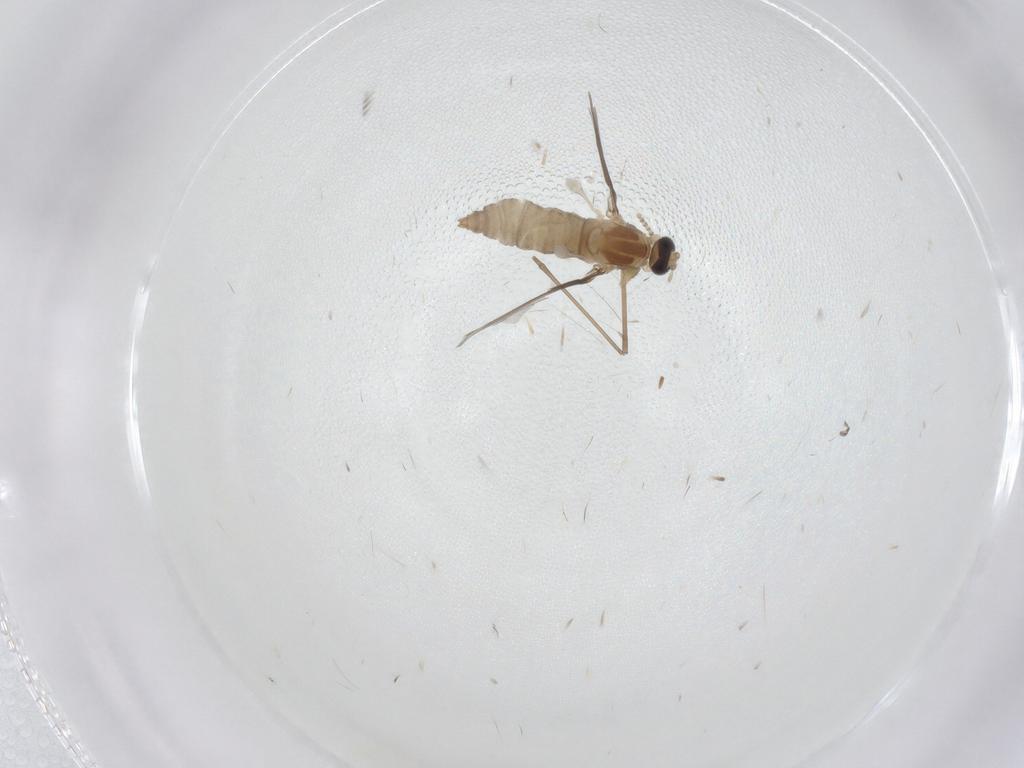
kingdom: Animalia
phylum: Arthropoda
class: Insecta
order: Diptera
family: Cecidomyiidae
